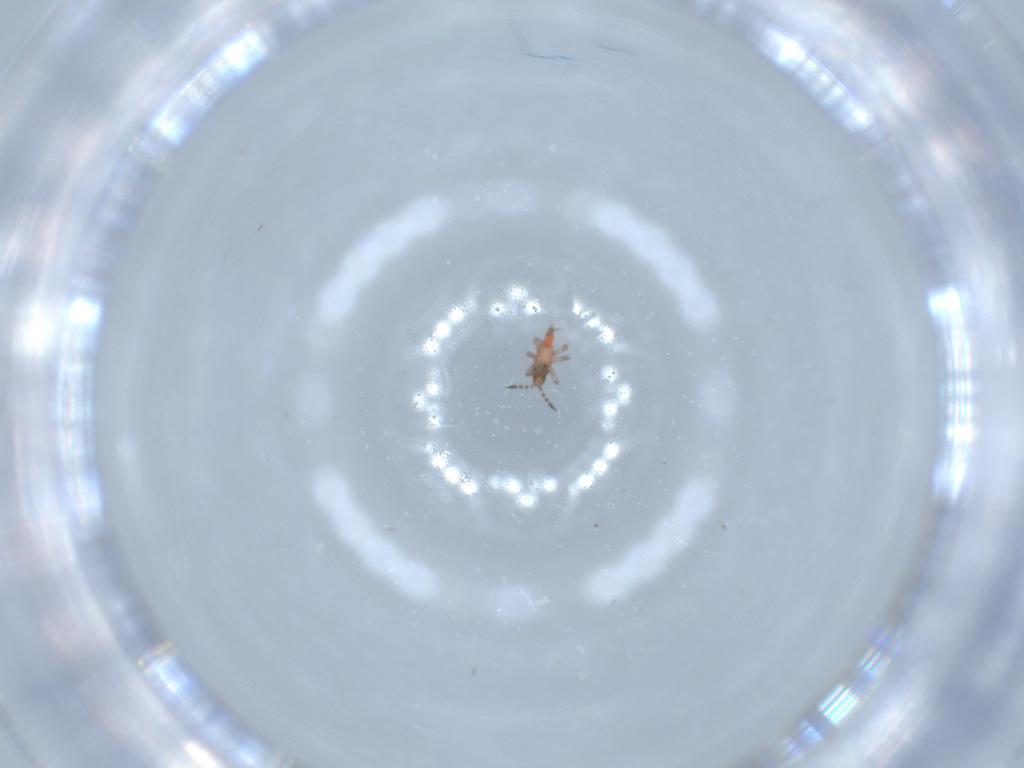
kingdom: Animalia
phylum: Arthropoda
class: Insecta
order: Thysanoptera
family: Phlaeothripidae
